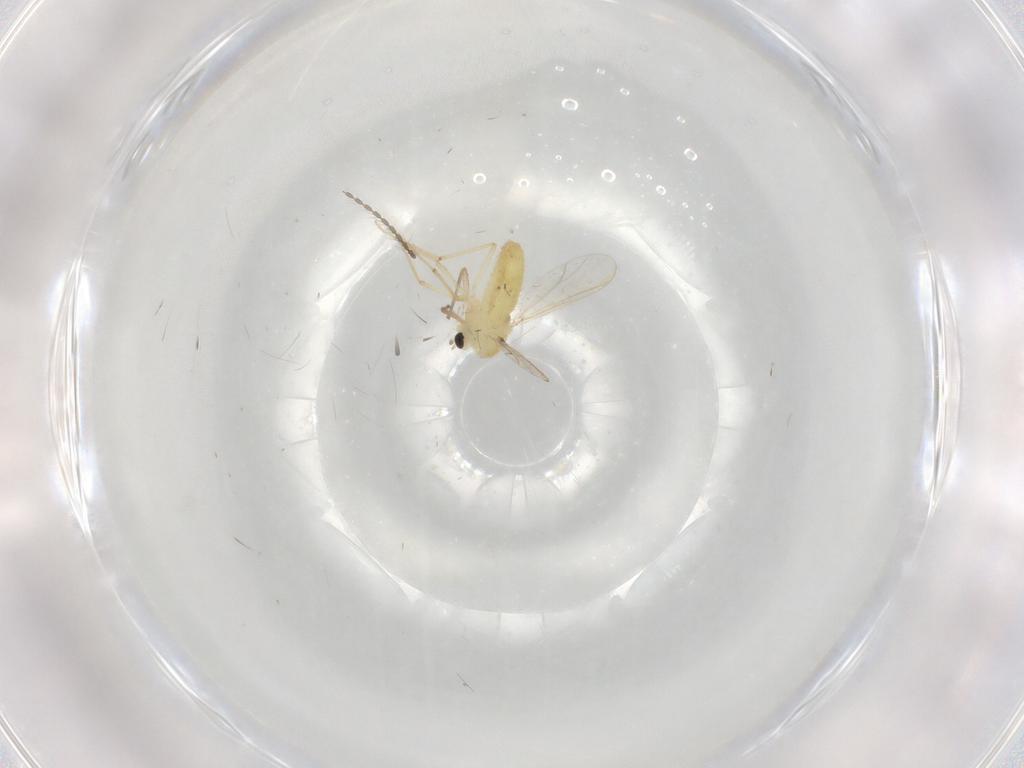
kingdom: Animalia
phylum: Arthropoda
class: Insecta
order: Diptera
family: Chironomidae
